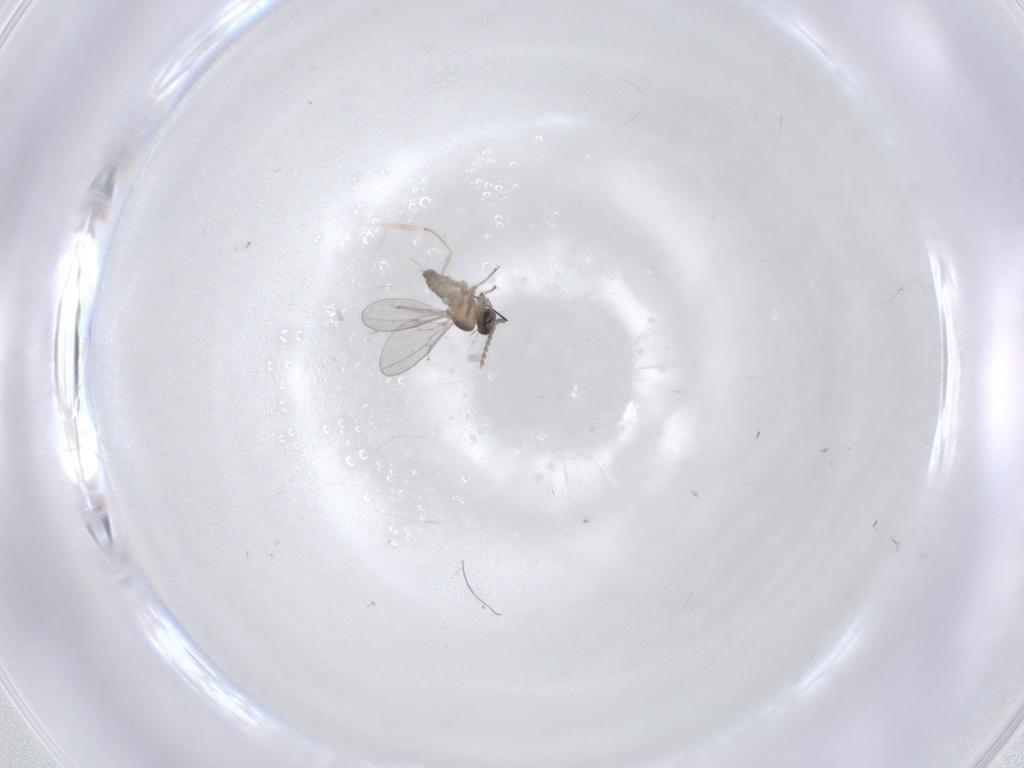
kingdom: Animalia
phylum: Arthropoda
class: Insecta
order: Diptera
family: Cecidomyiidae
